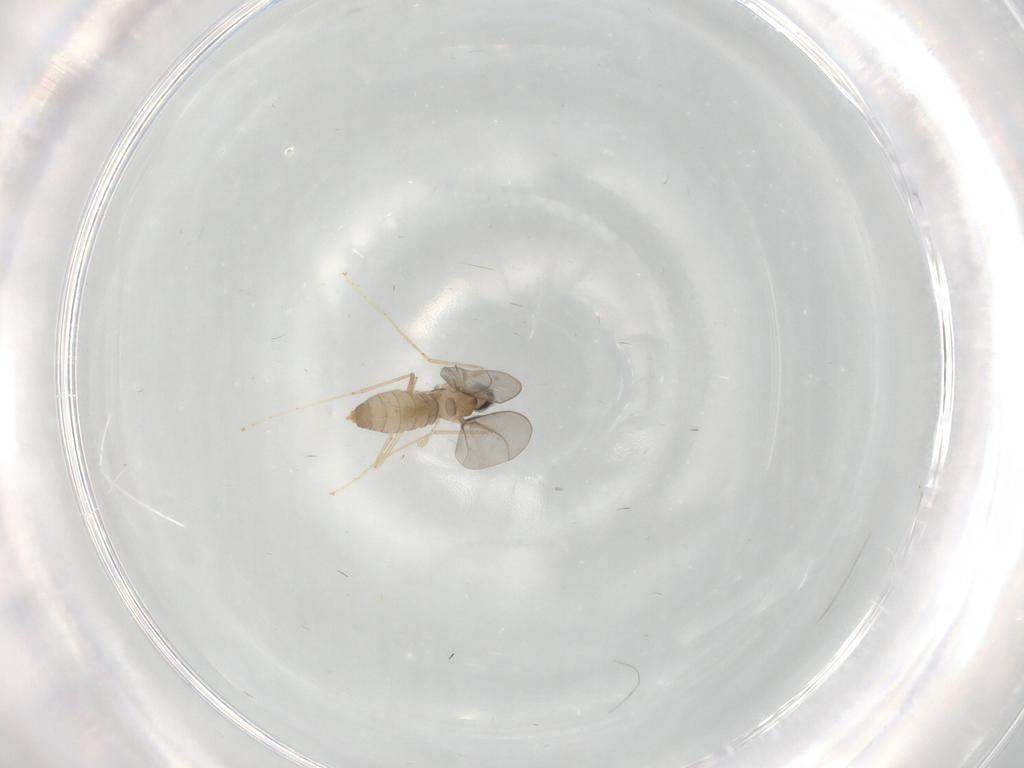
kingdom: Animalia
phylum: Arthropoda
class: Insecta
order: Diptera
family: Cecidomyiidae
